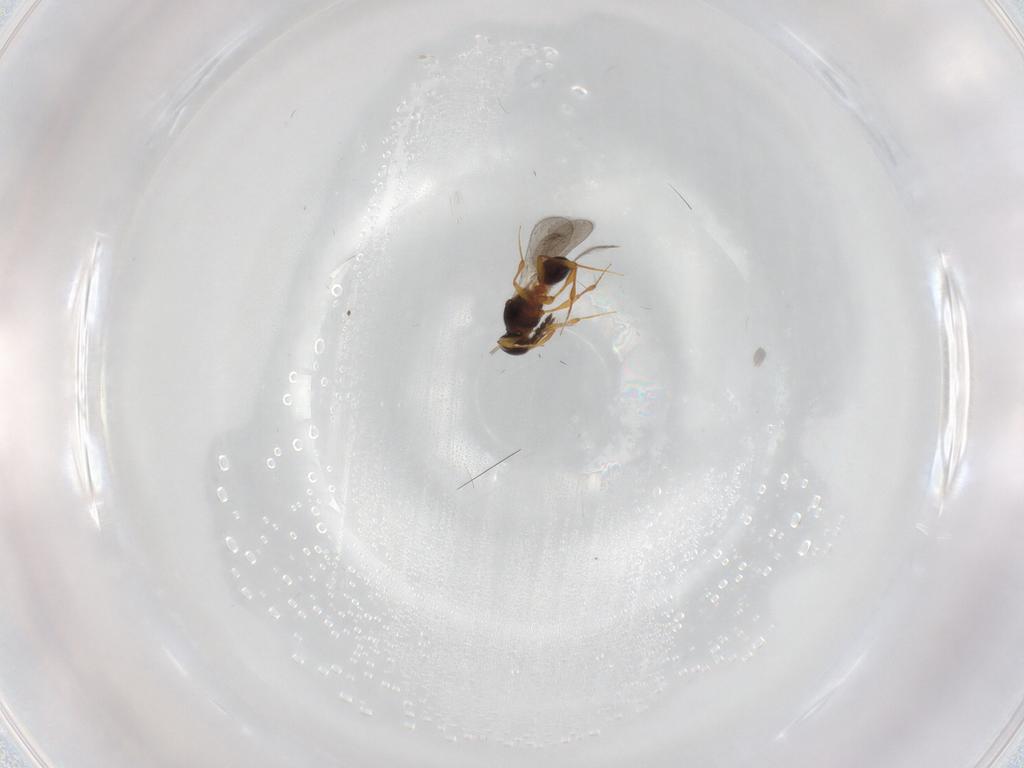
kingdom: Animalia
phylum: Arthropoda
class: Insecta
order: Hymenoptera
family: Platygastridae
